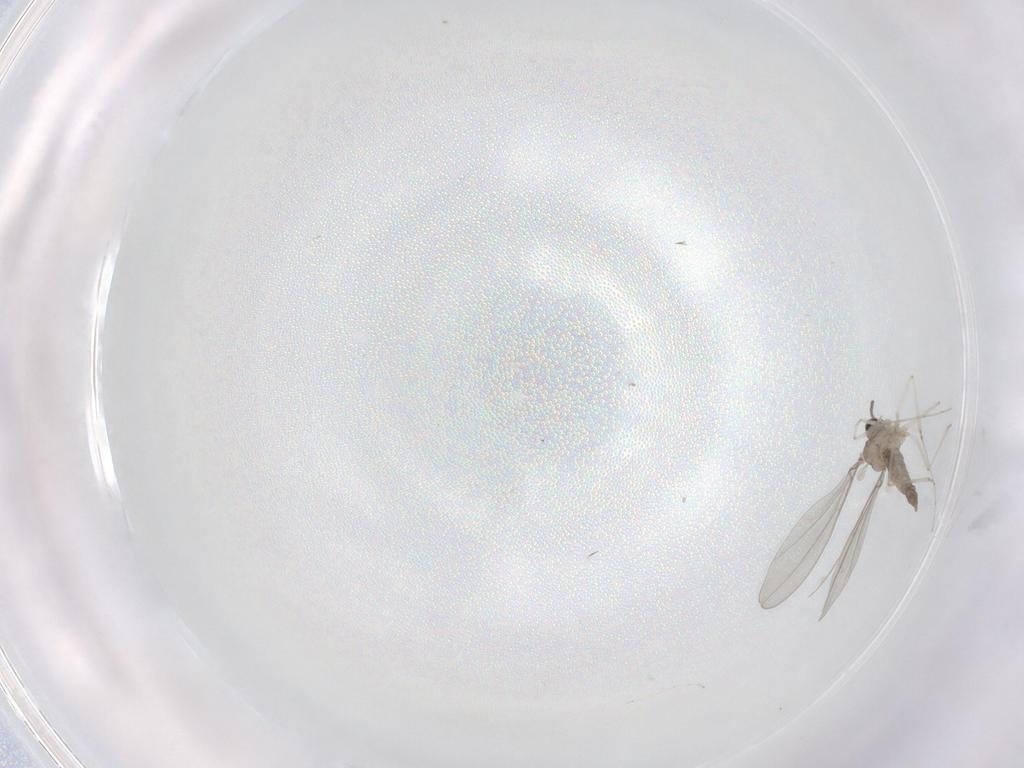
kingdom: Animalia
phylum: Arthropoda
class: Insecta
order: Diptera
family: Cecidomyiidae
